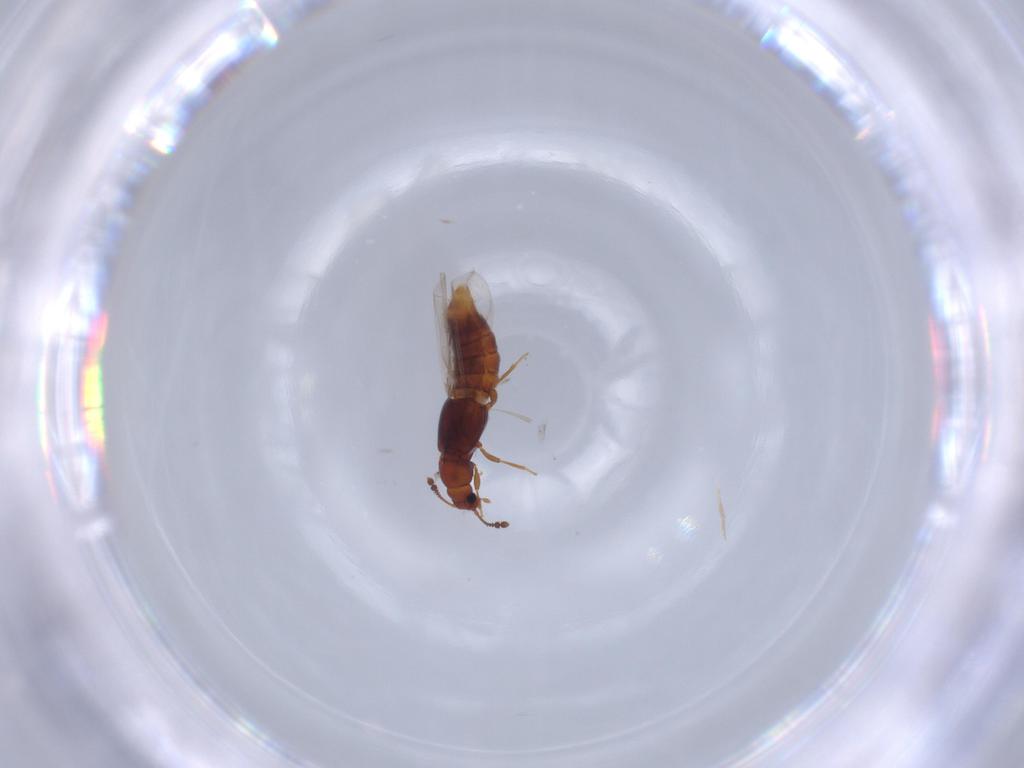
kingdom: Animalia
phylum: Arthropoda
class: Insecta
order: Coleoptera
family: Staphylinidae
